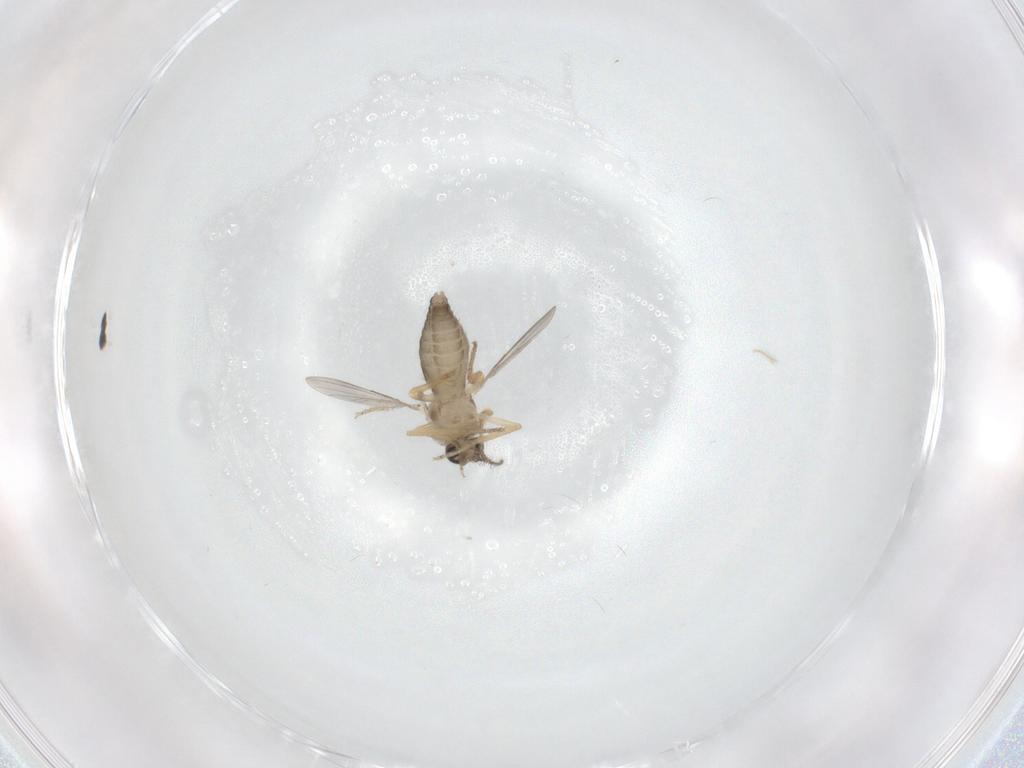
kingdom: Animalia
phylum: Arthropoda
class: Insecta
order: Diptera
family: Ceratopogonidae
